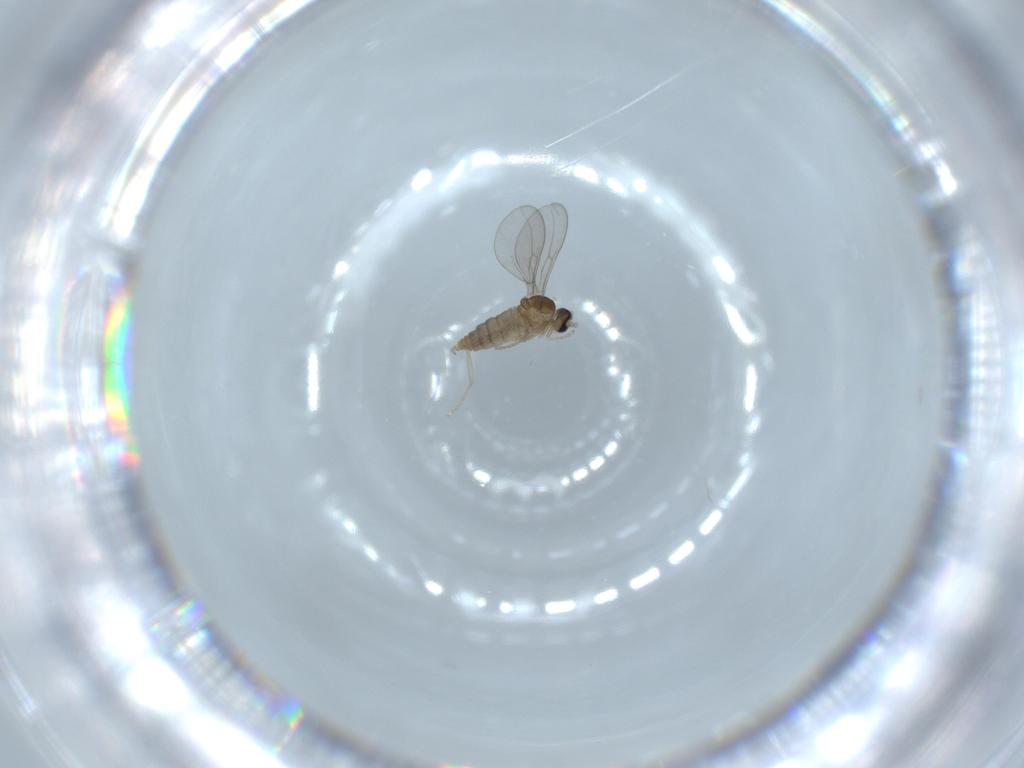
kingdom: Animalia
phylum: Arthropoda
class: Insecta
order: Diptera
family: Cecidomyiidae
